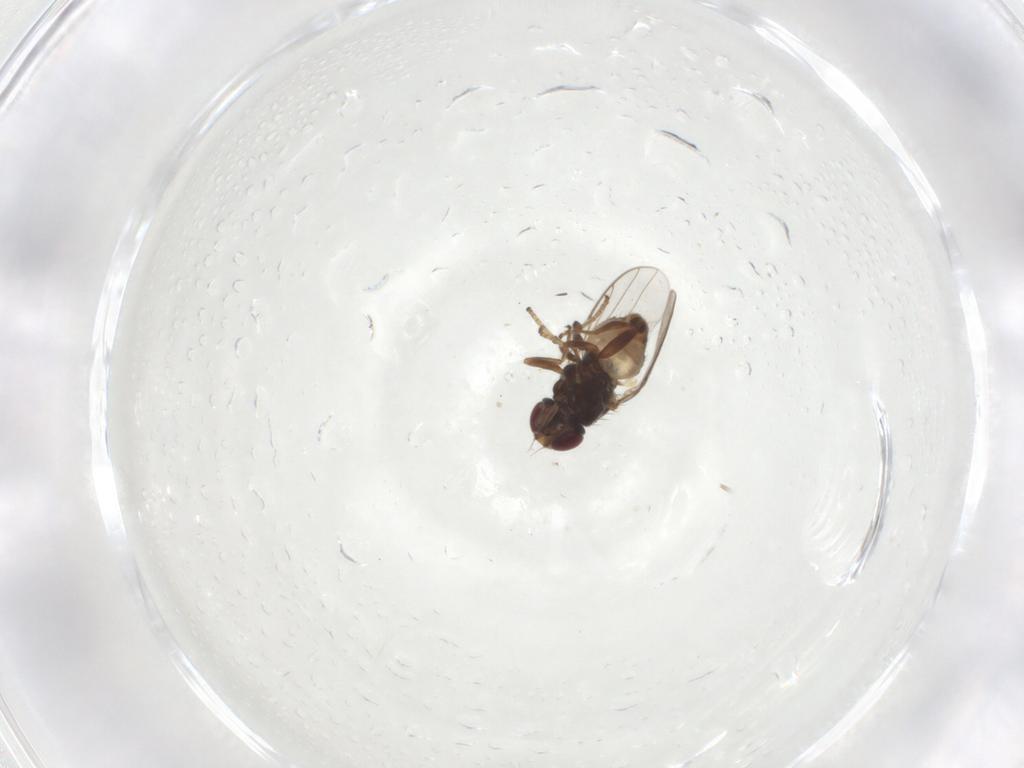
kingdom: Animalia
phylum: Arthropoda
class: Insecta
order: Diptera
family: Chloropidae
